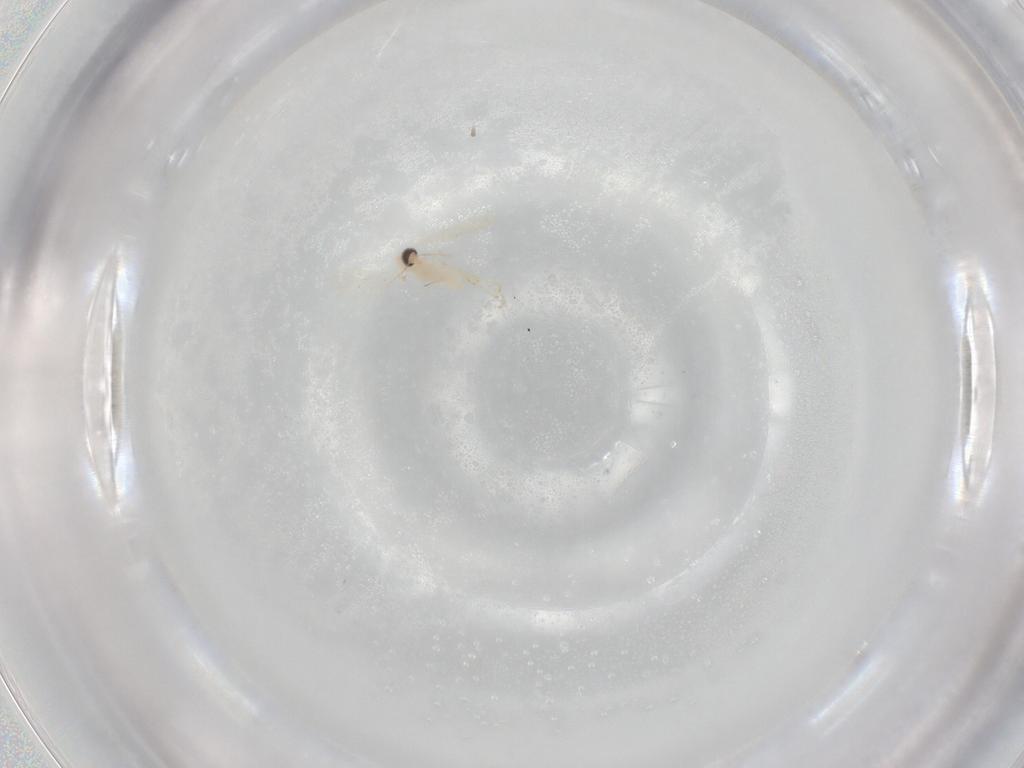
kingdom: Animalia
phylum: Arthropoda
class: Insecta
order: Diptera
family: Cecidomyiidae
